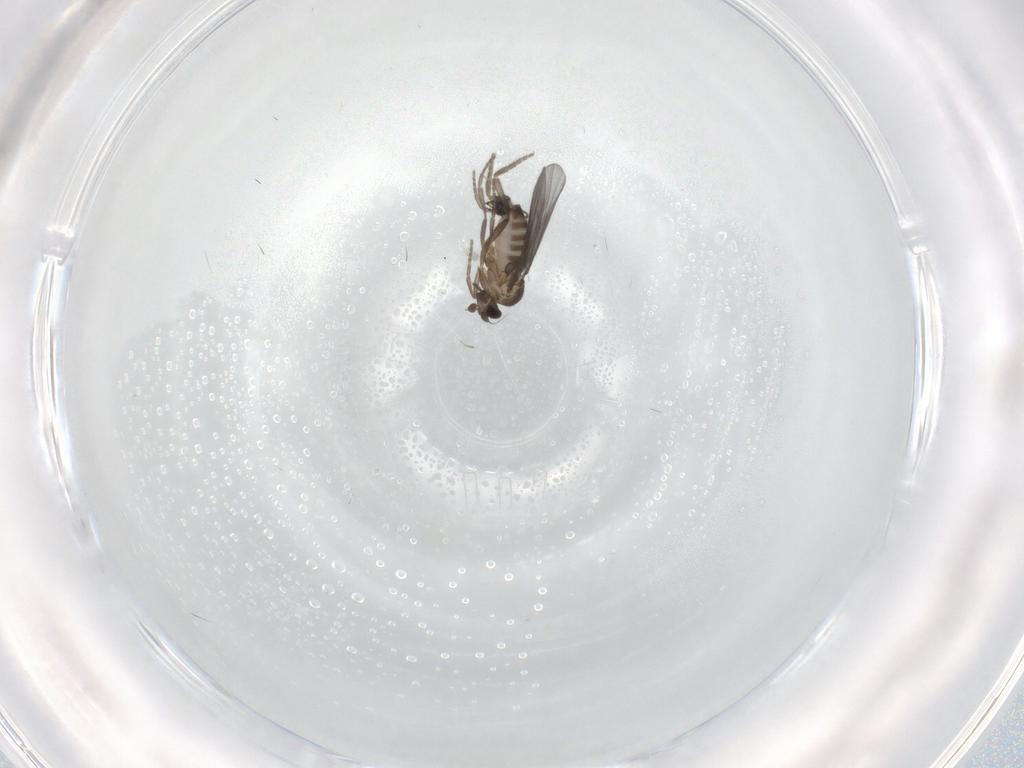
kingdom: Animalia
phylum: Arthropoda
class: Insecta
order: Diptera
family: Phoridae
